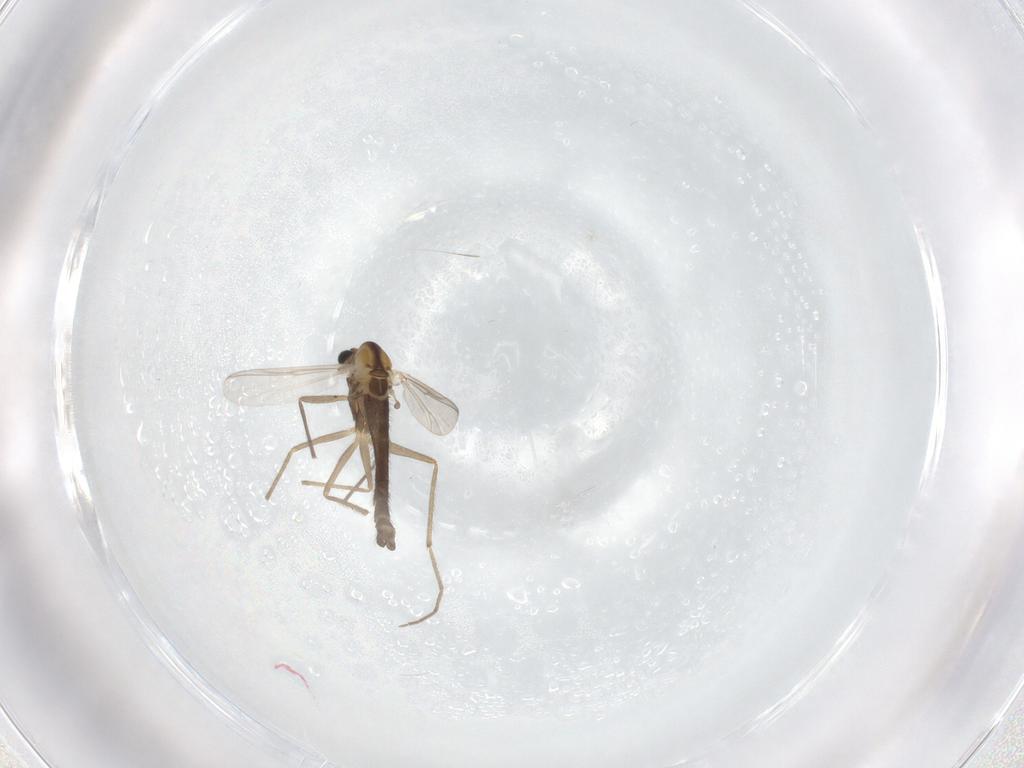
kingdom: Animalia
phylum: Arthropoda
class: Insecta
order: Diptera
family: Chironomidae
